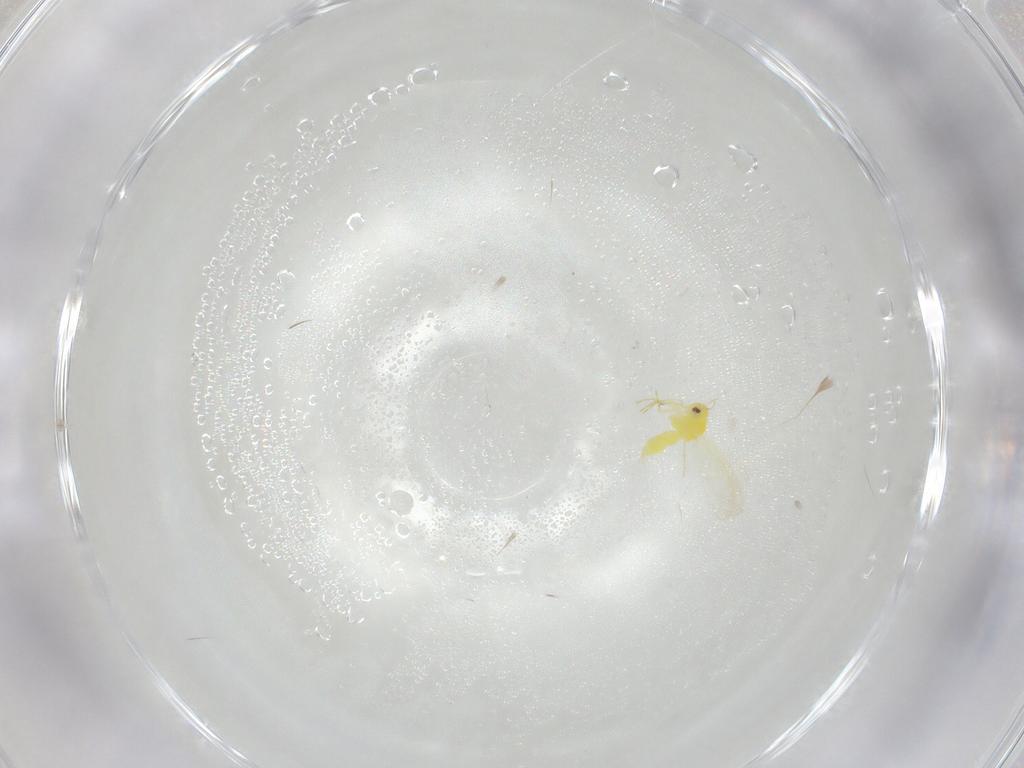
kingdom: Animalia
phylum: Arthropoda
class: Insecta
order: Hemiptera
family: Aleyrodidae
